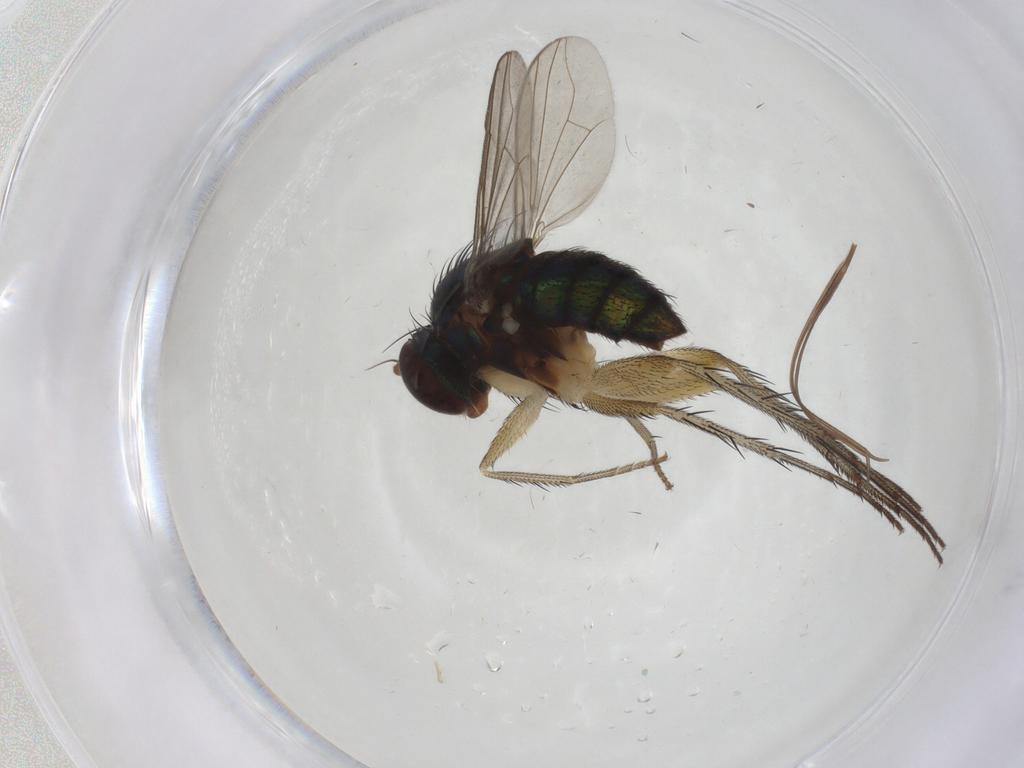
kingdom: Animalia
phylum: Arthropoda
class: Insecta
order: Diptera
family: Dolichopodidae
